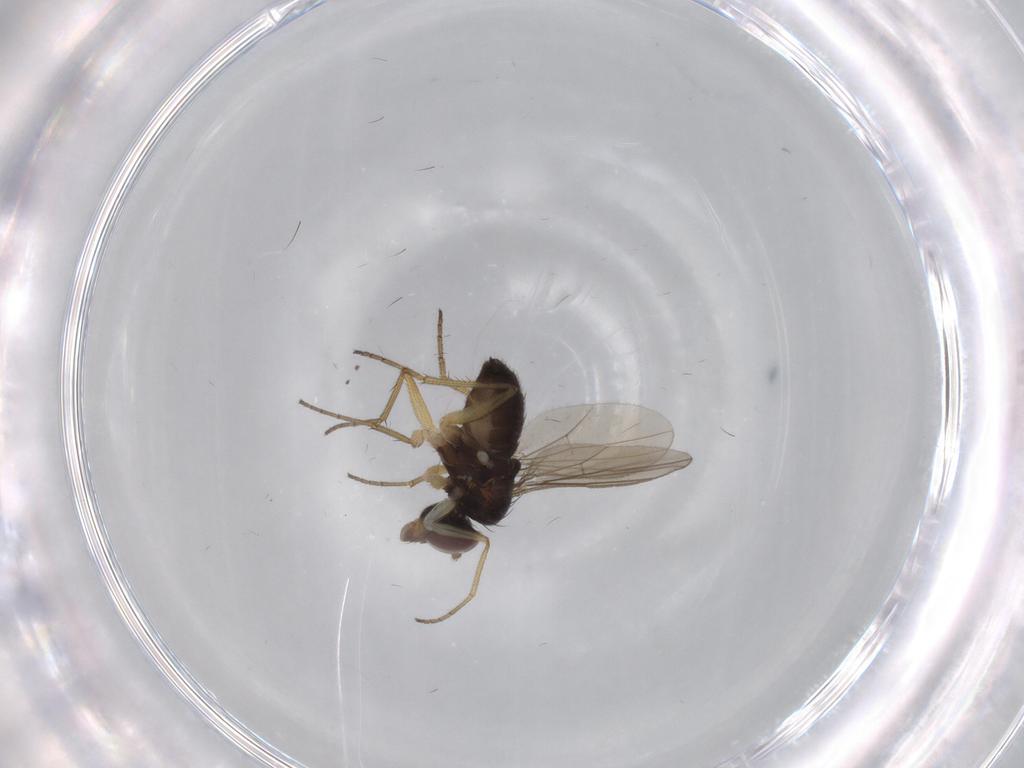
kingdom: Animalia
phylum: Arthropoda
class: Insecta
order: Diptera
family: Dolichopodidae
